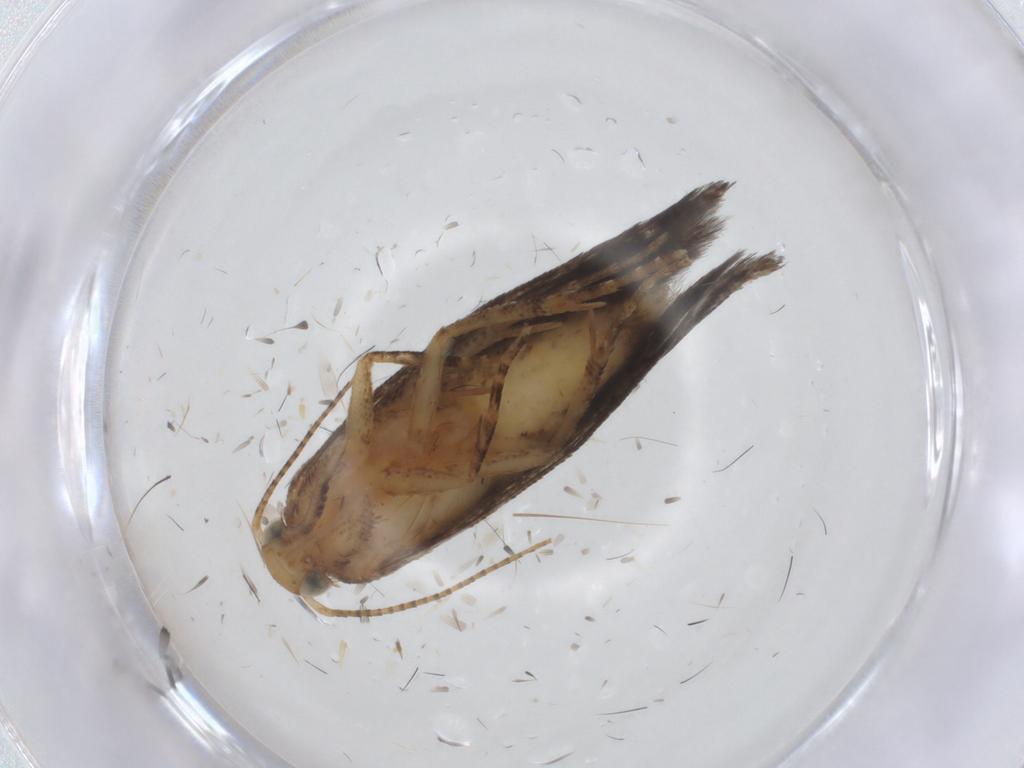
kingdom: Animalia
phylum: Arthropoda
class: Insecta
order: Lepidoptera
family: Gelechiidae
